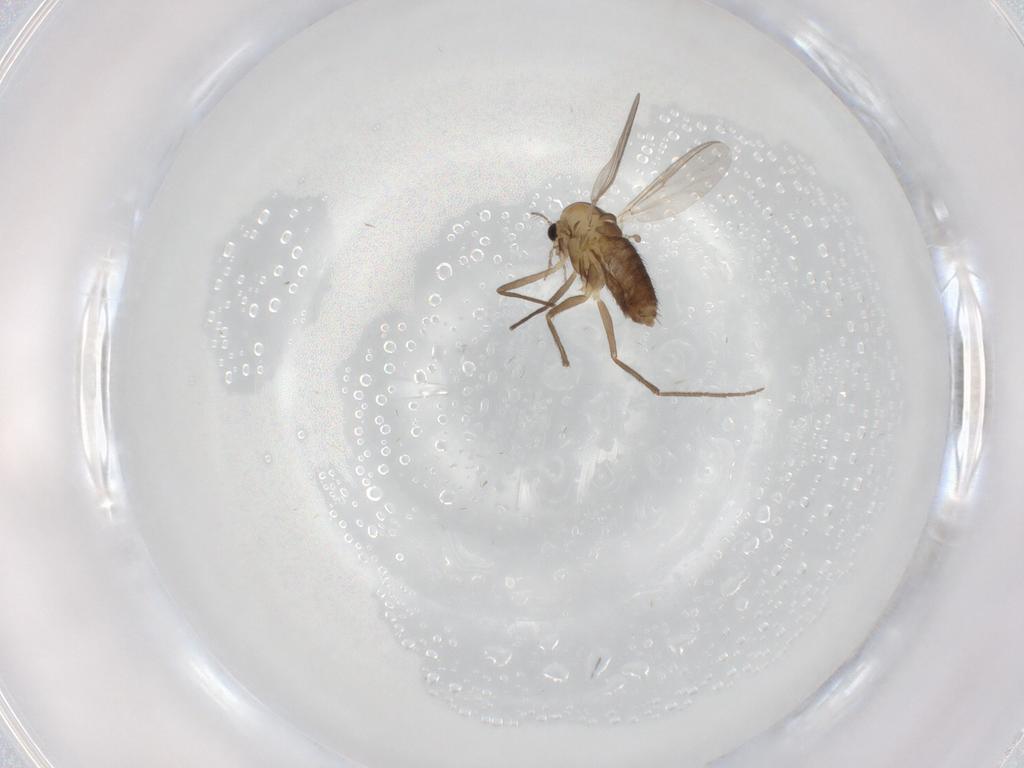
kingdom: Animalia
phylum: Arthropoda
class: Insecta
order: Diptera
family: Chironomidae
